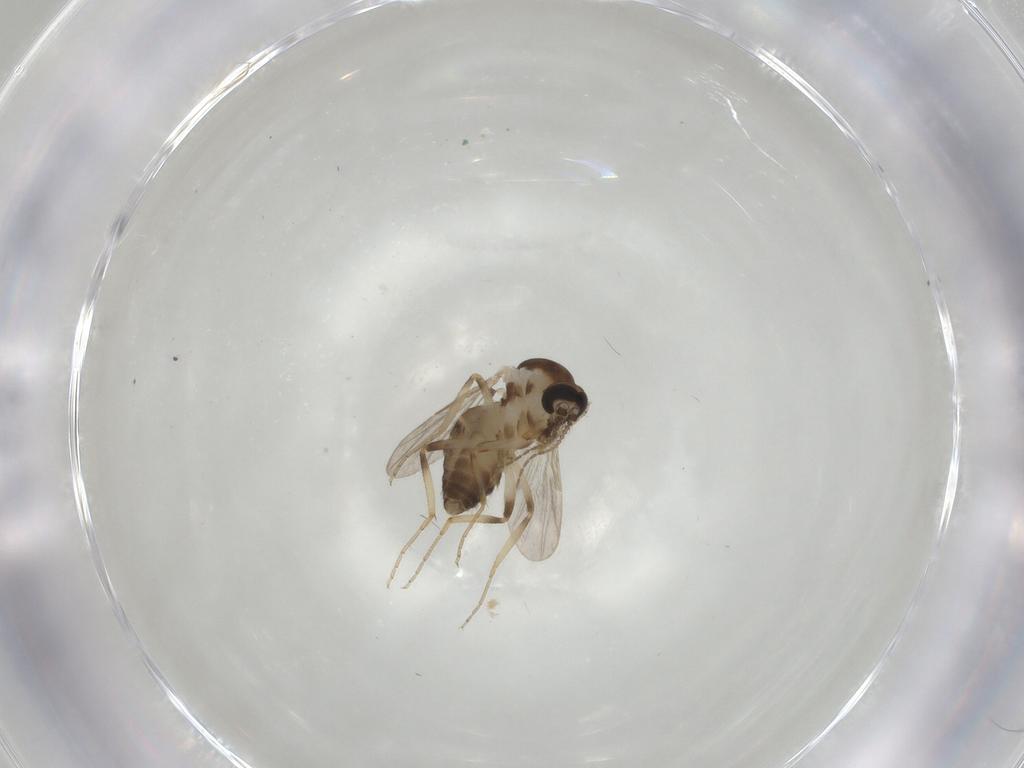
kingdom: Animalia
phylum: Arthropoda
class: Insecta
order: Diptera
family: Ceratopogonidae
